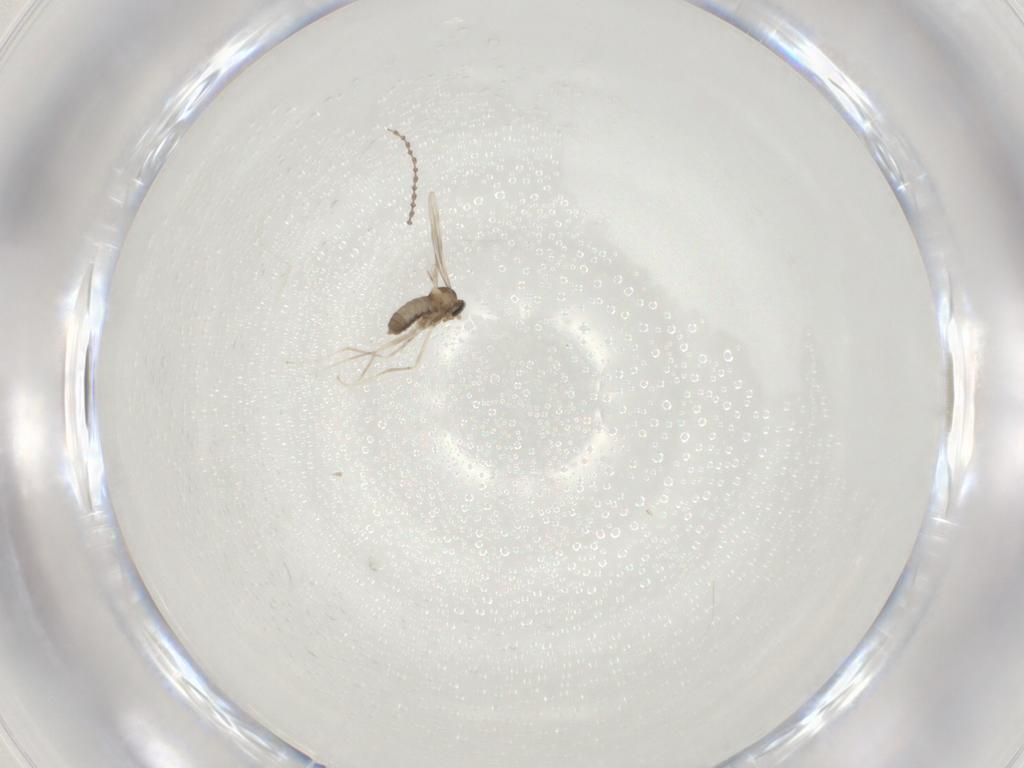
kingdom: Animalia
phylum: Arthropoda
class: Insecta
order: Diptera
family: Cecidomyiidae
